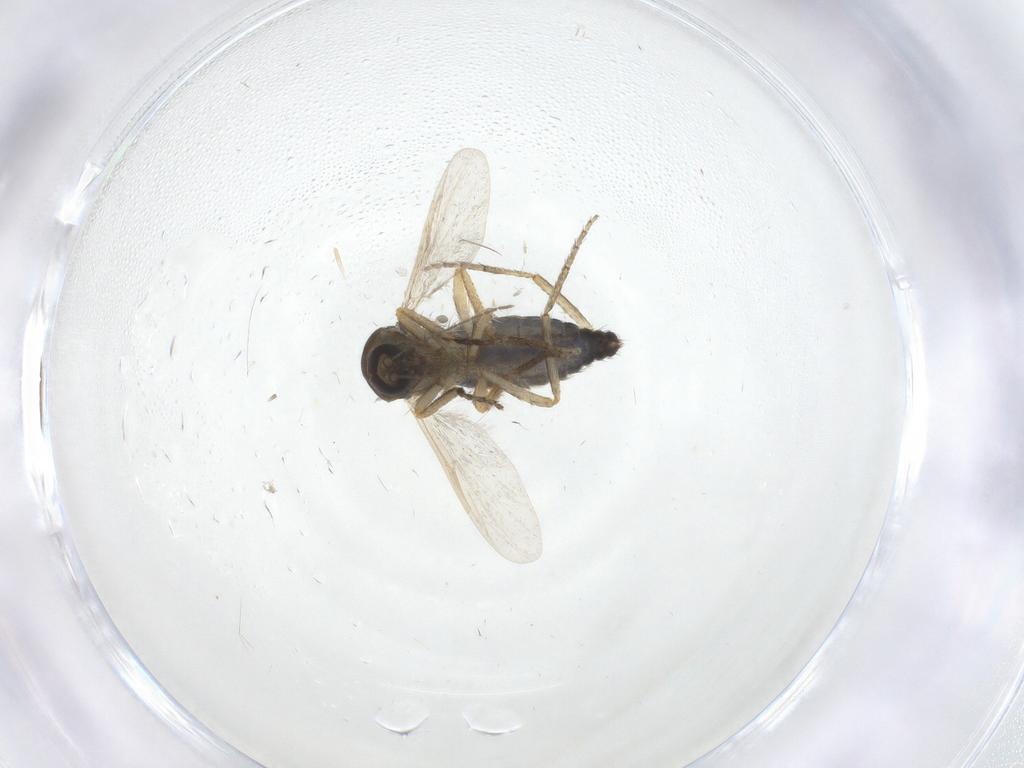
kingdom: Animalia
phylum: Arthropoda
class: Insecta
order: Diptera
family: Ceratopogonidae
